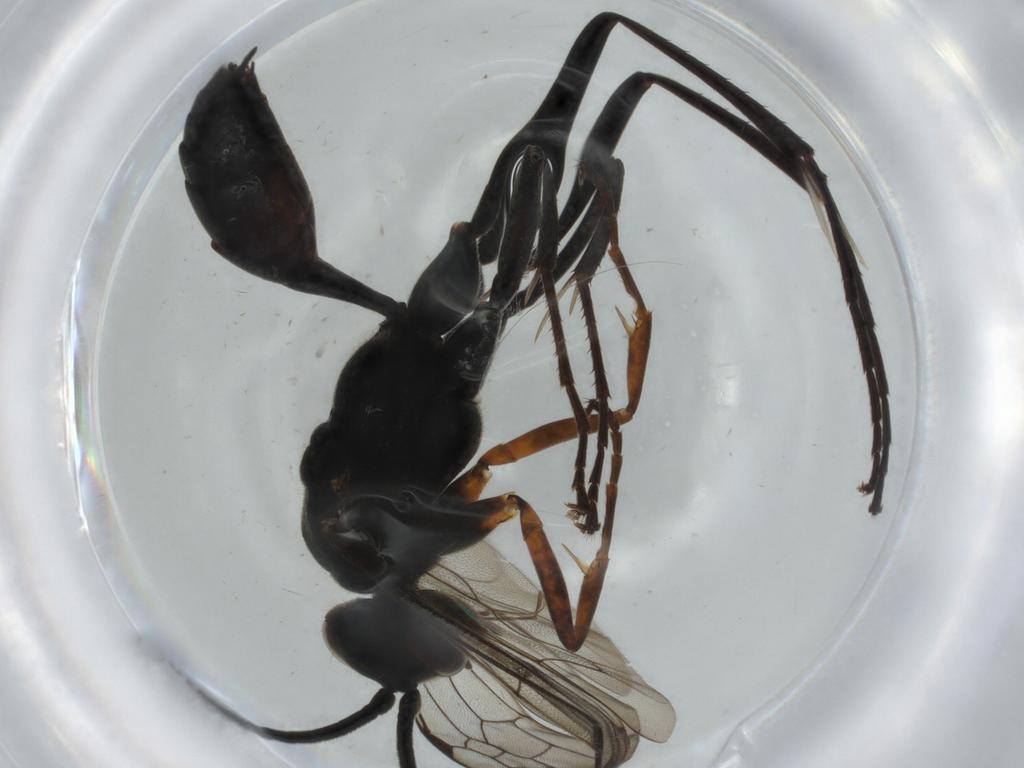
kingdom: Animalia
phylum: Arthropoda
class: Insecta
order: Hymenoptera
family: Pompilidae
